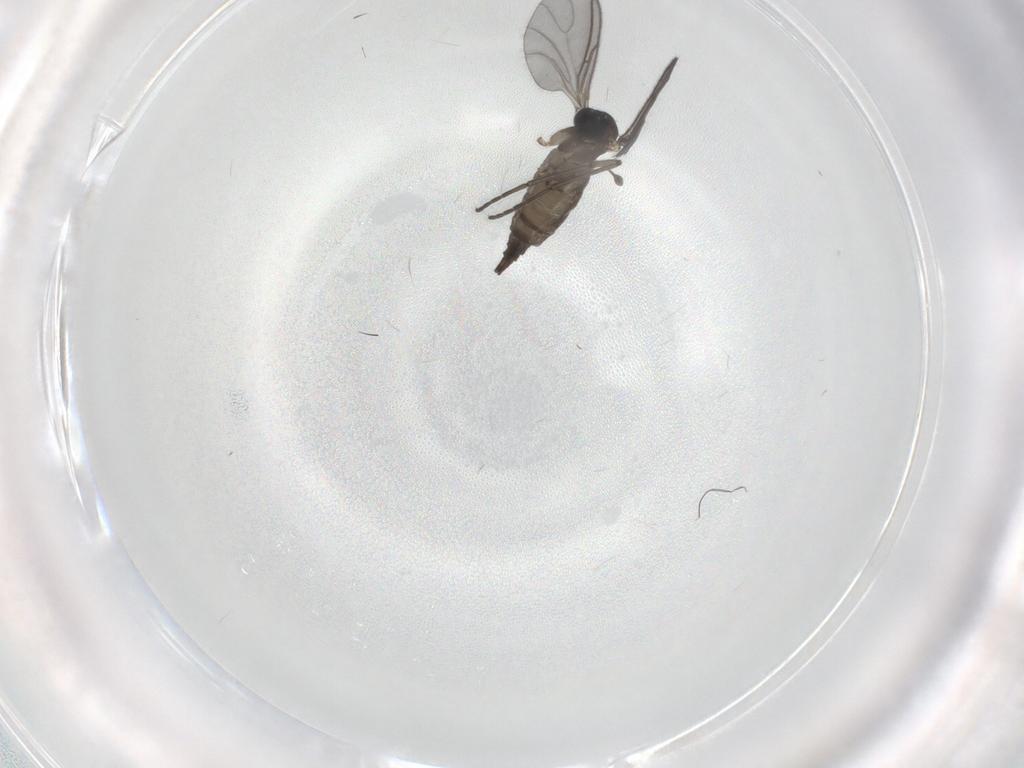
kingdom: Animalia
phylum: Arthropoda
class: Insecta
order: Diptera
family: Sciaridae
